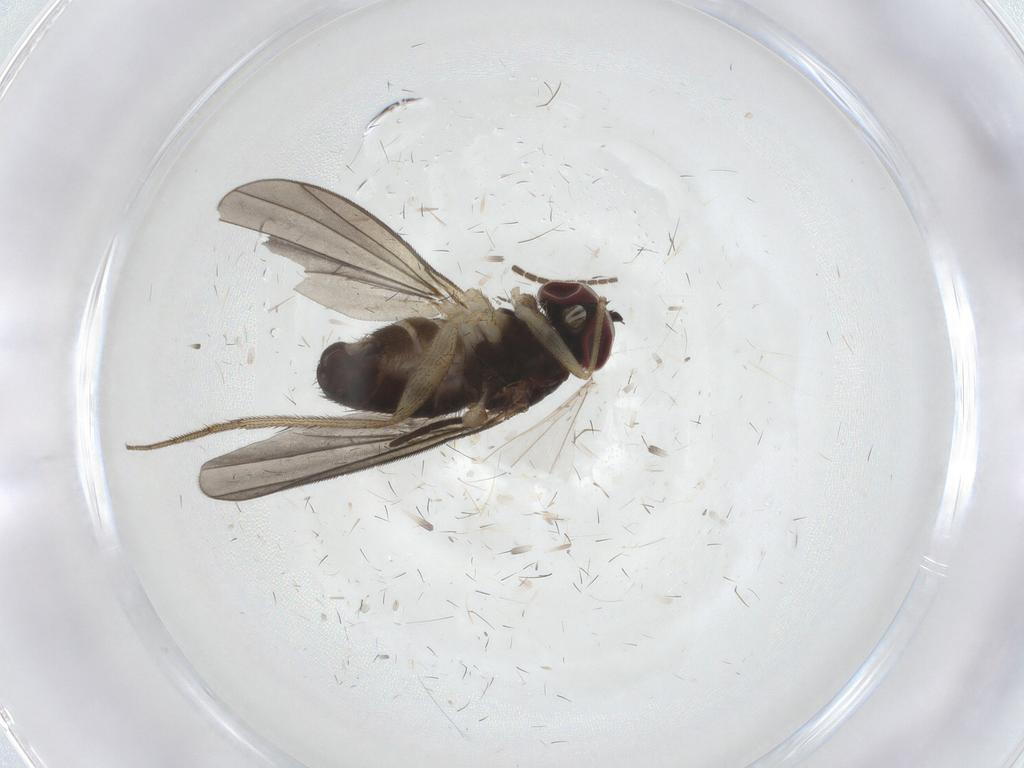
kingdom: Animalia
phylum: Arthropoda
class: Insecta
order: Diptera
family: Dolichopodidae
